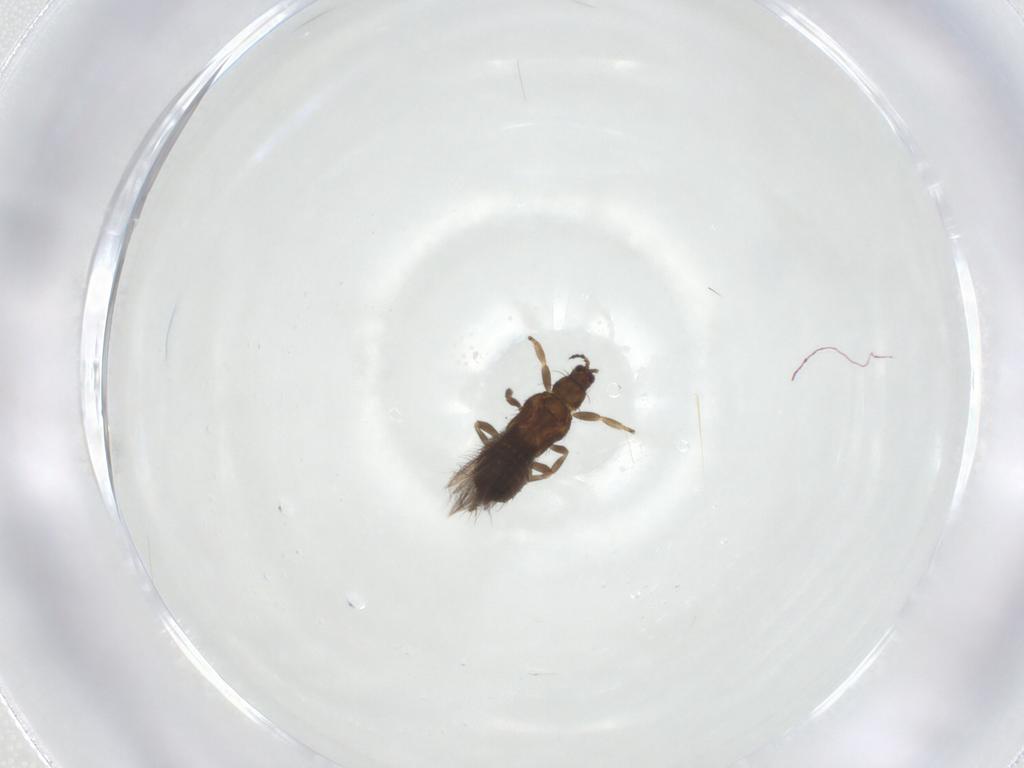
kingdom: Animalia
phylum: Arthropoda
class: Insecta
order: Thysanoptera
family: Thripidae
